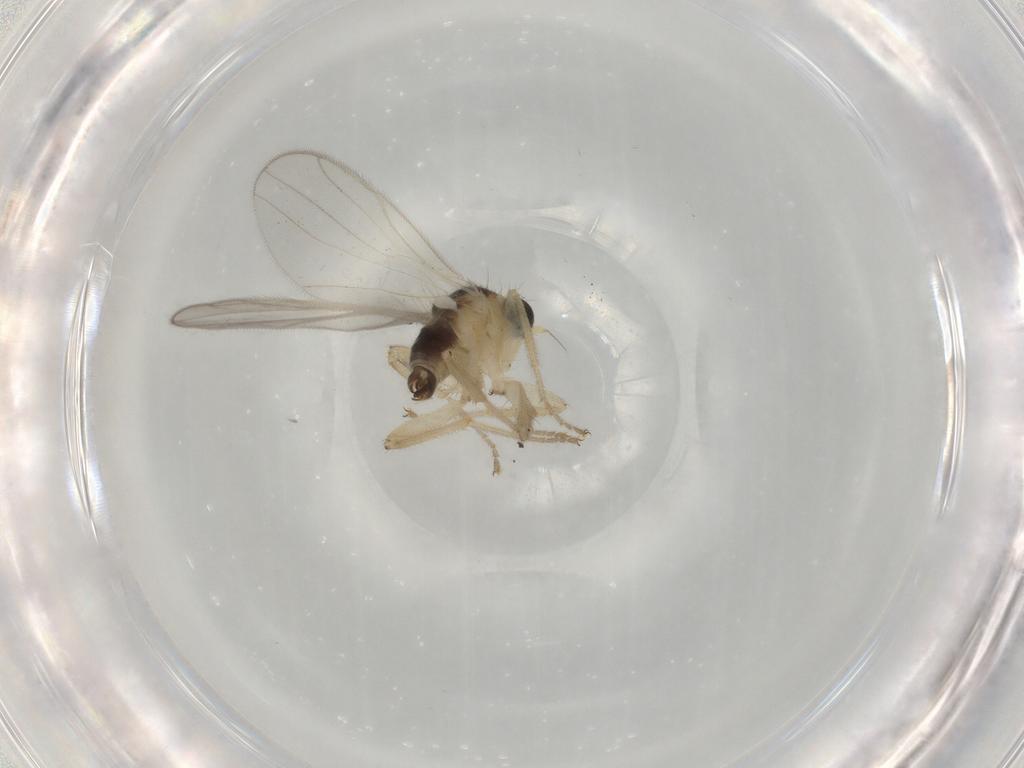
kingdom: Animalia
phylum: Arthropoda
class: Insecta
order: Diptera
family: Hybotidae
